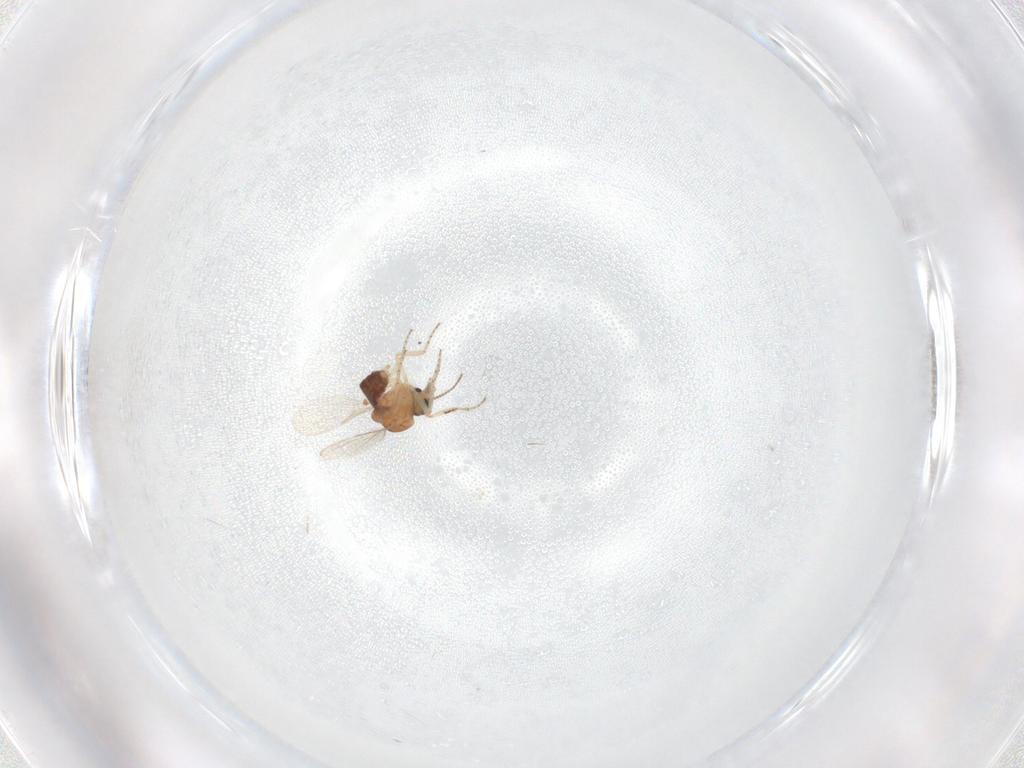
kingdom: Animalia
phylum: Arthropoda
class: Insecta
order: Diptera
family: Lonchaeidae
